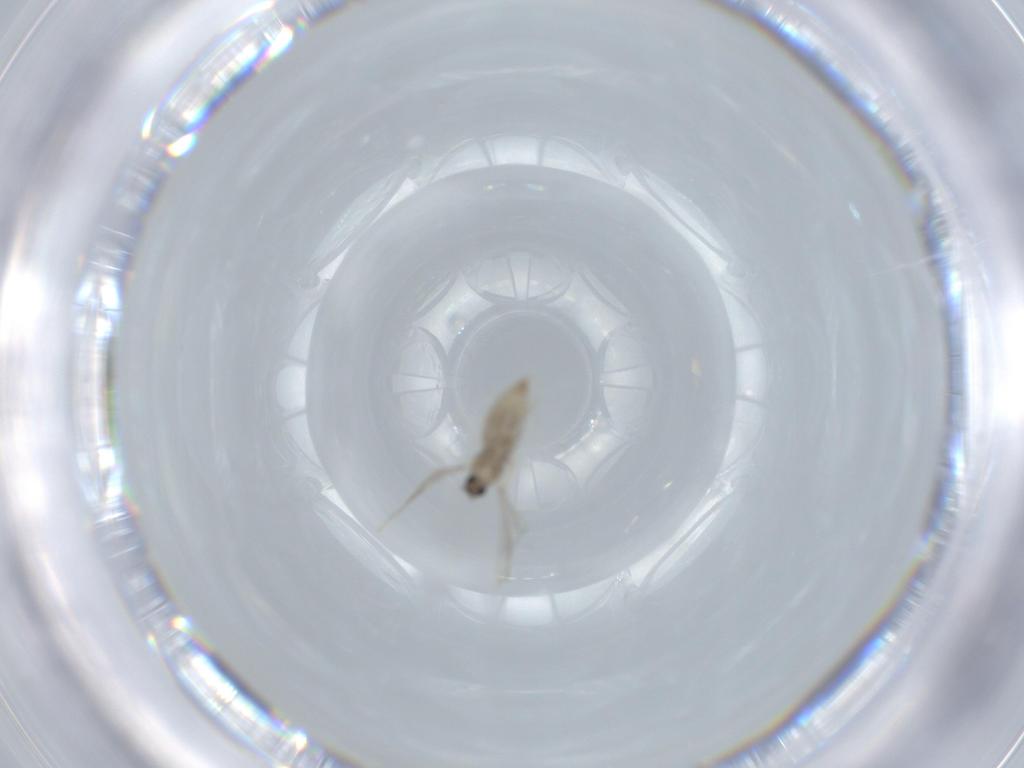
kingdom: Animalia
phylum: Arthropoda
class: Insecta
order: Diptera
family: Cecidomyiidae
